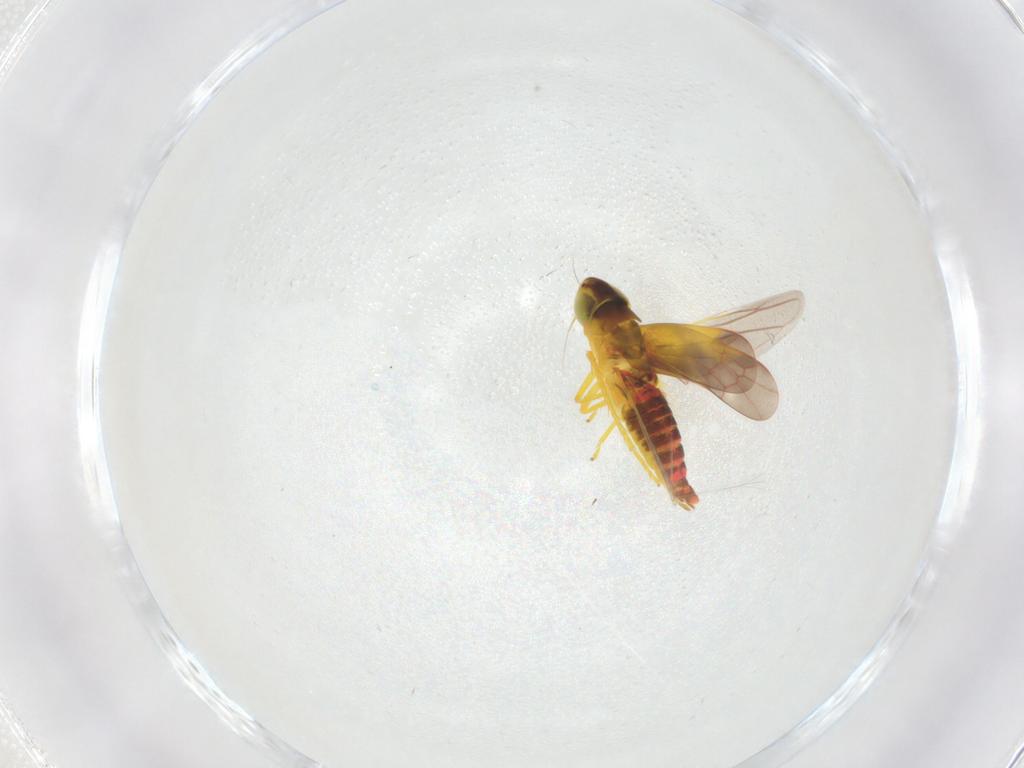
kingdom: Animalia
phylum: Arthropoda
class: Insecta
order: Hemiptera
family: Cicadellidae
